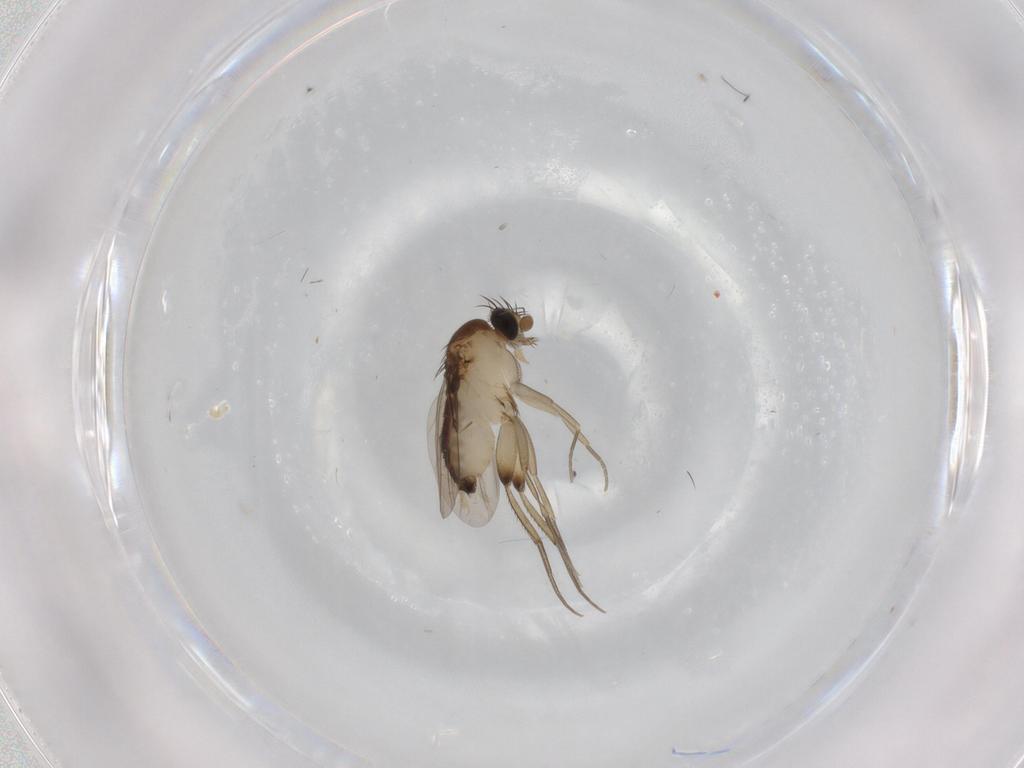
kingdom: Animalia
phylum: Arthropoda
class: Insecta
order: Diptera
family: Phoridae
